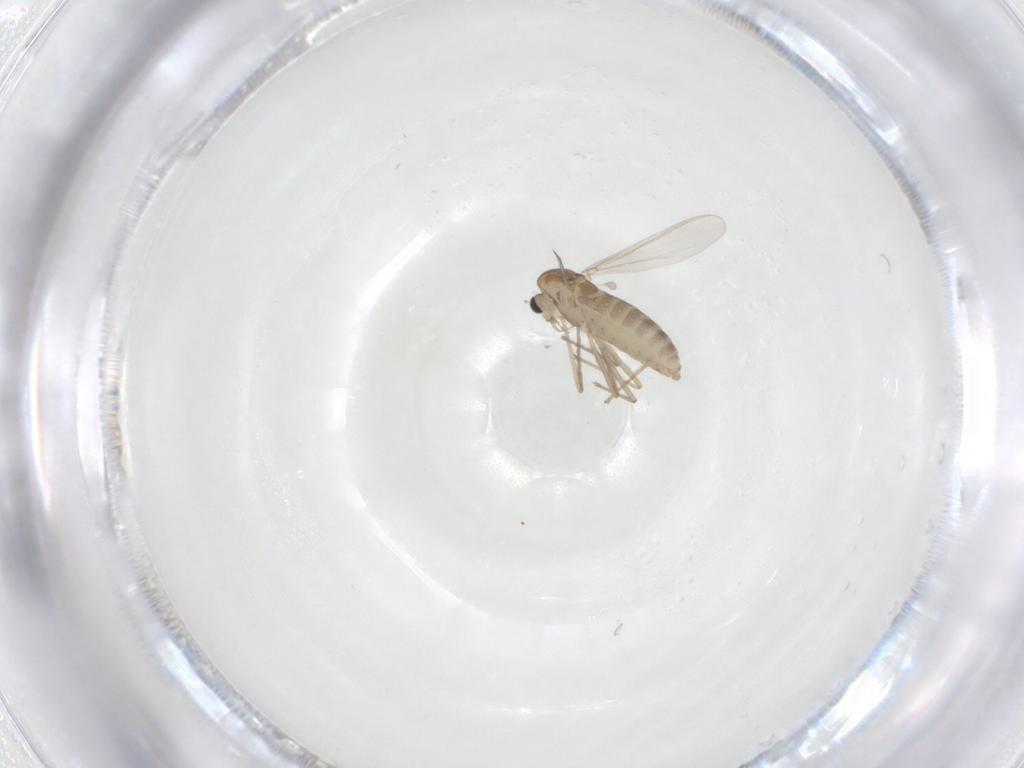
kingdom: Animalia
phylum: Arthropoda
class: Insecta
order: Diptera
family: Chironomidae
